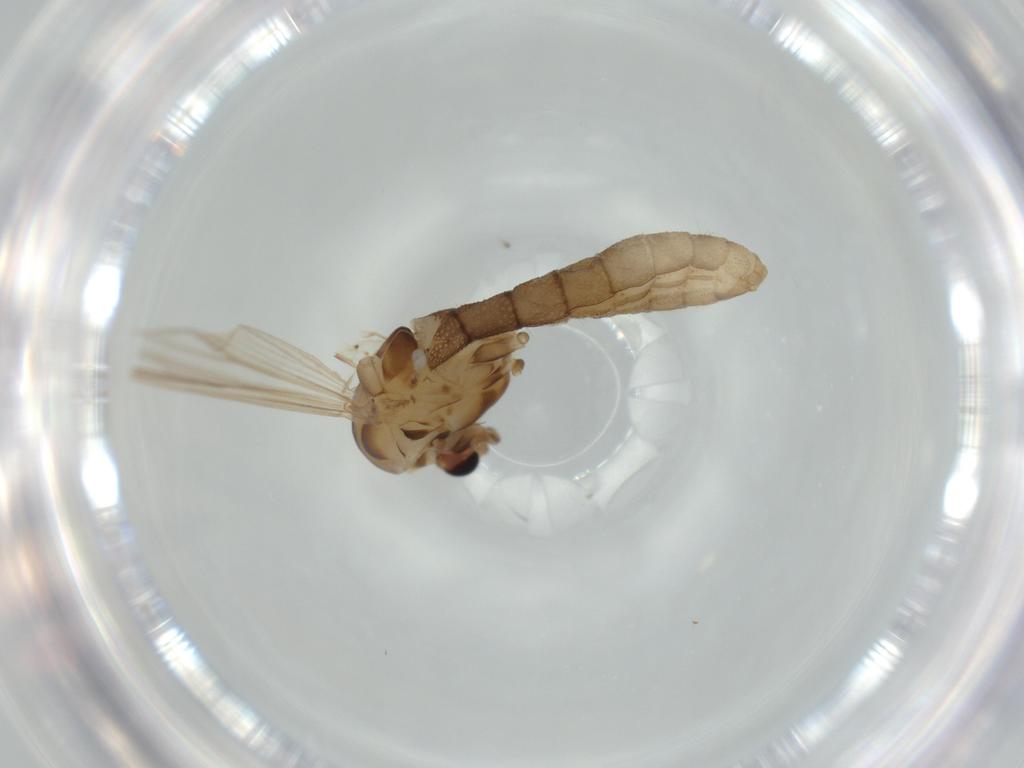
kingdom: Animalia
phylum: Arthropoda
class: Insecta
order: Diptera
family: Chironomidae
